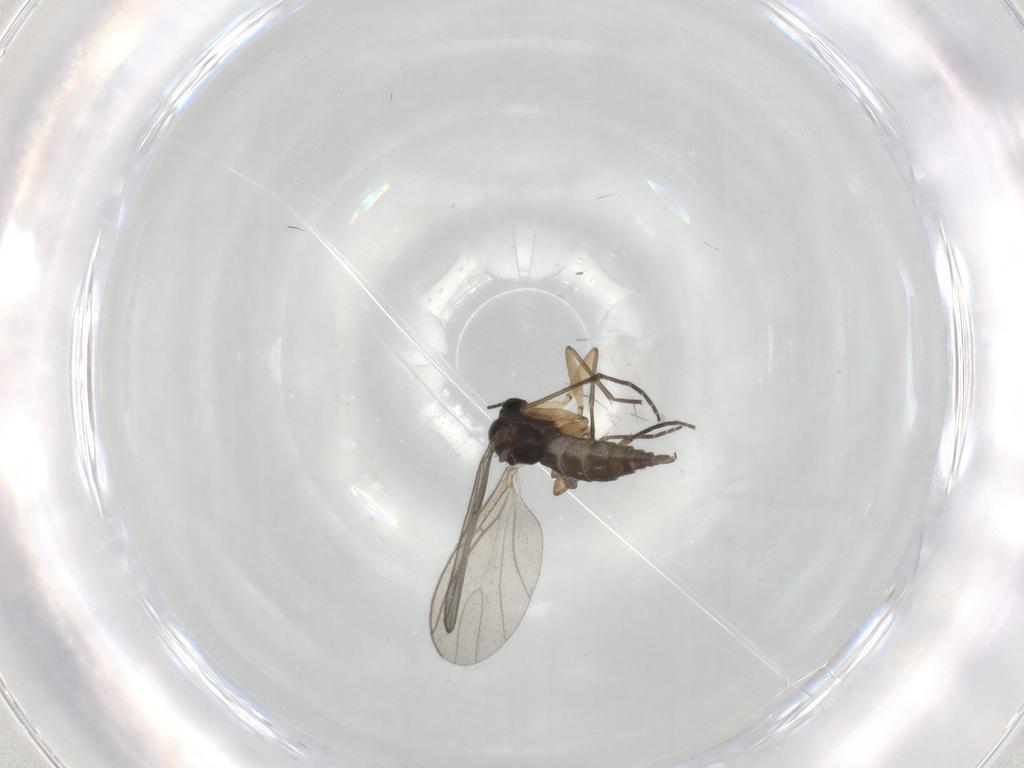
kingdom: Animalia
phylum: Arthropoda
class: Insecta
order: Diptera
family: Sciaridae
